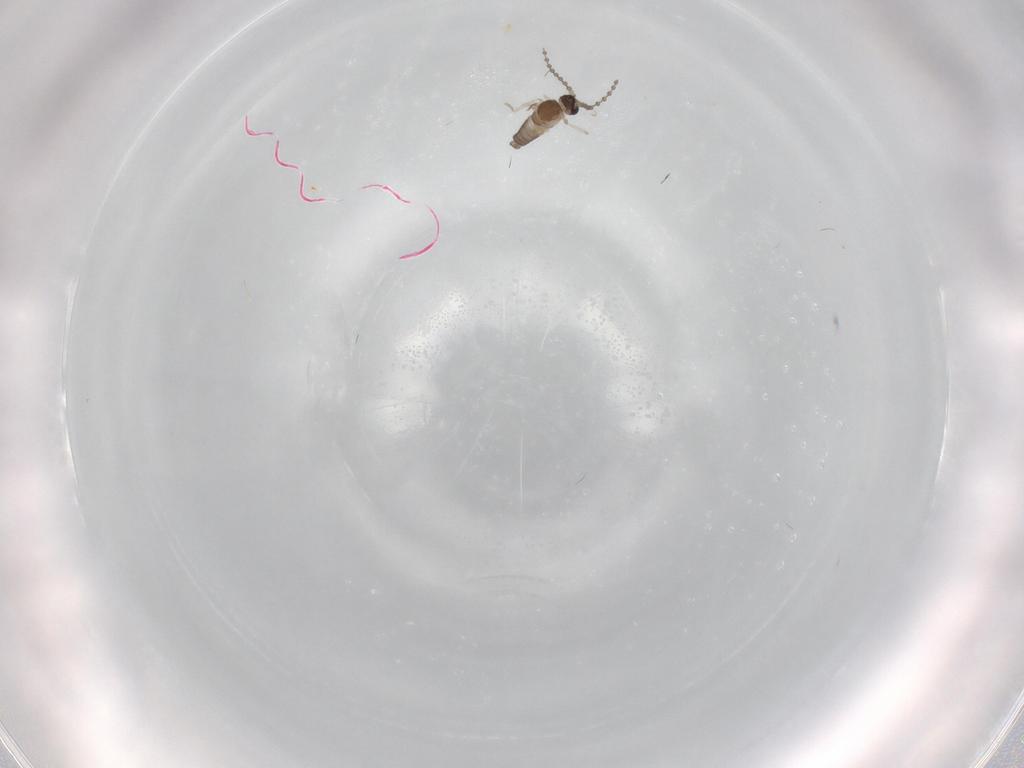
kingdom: Animalia
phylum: Arthropoda
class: Insecta
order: Diptera
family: Cecidomyiidae
